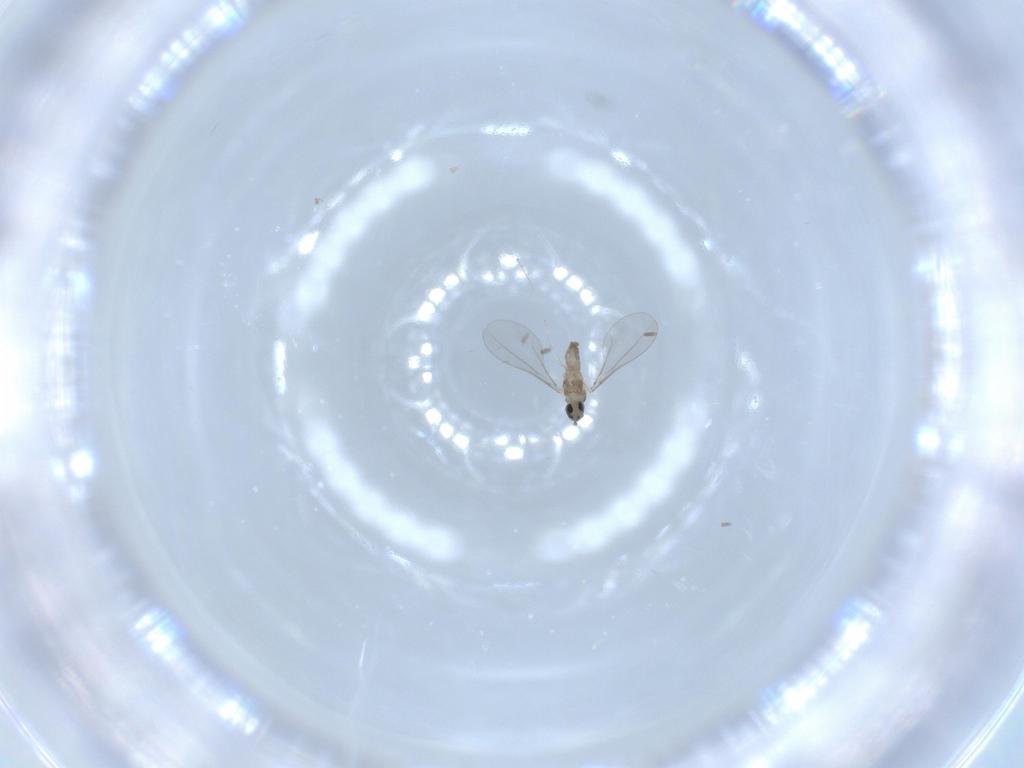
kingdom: Animalia
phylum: Arthropoda
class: Insecta
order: Diptera
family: Cecidomyiidae
